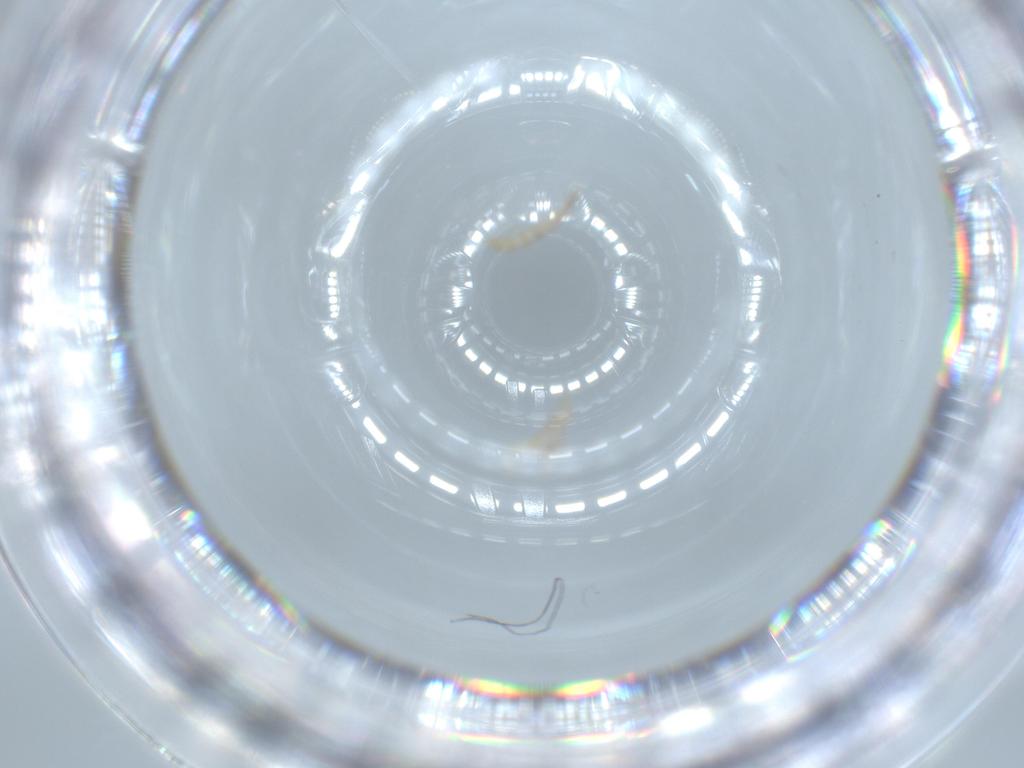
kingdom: Animalia
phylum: Arthropoda
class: Insecta
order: Neuroptera
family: Mantispidae
